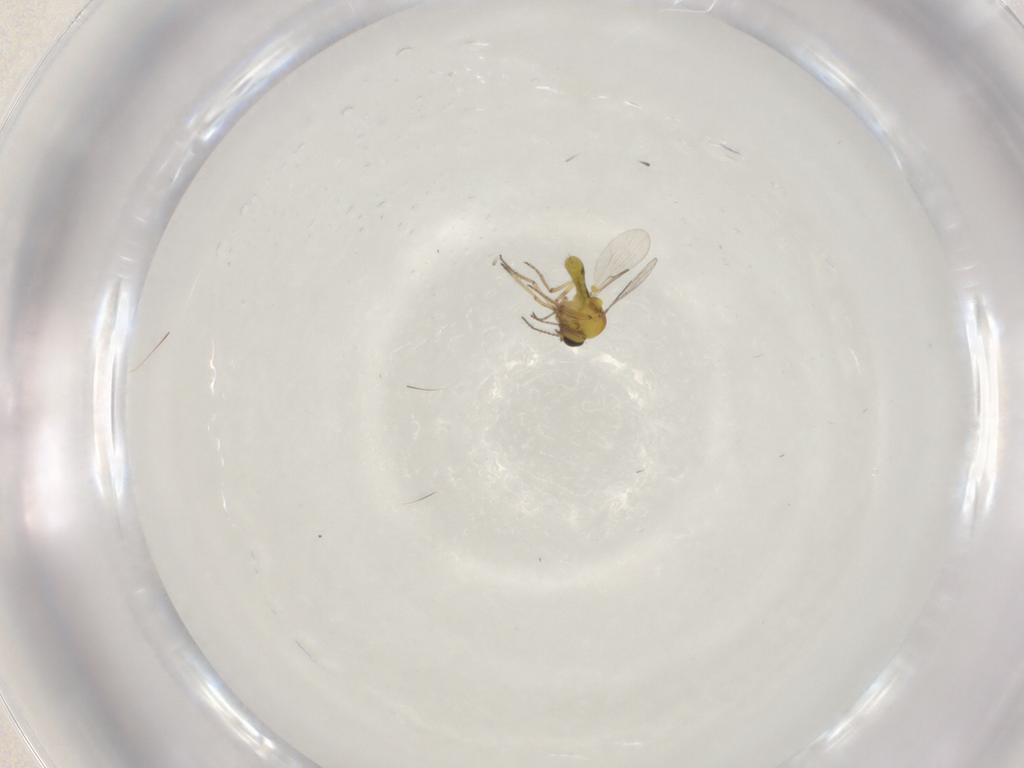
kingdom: Animalia
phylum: Arthropoda
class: Insecta
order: Diptera
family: Ceratopogonidae
